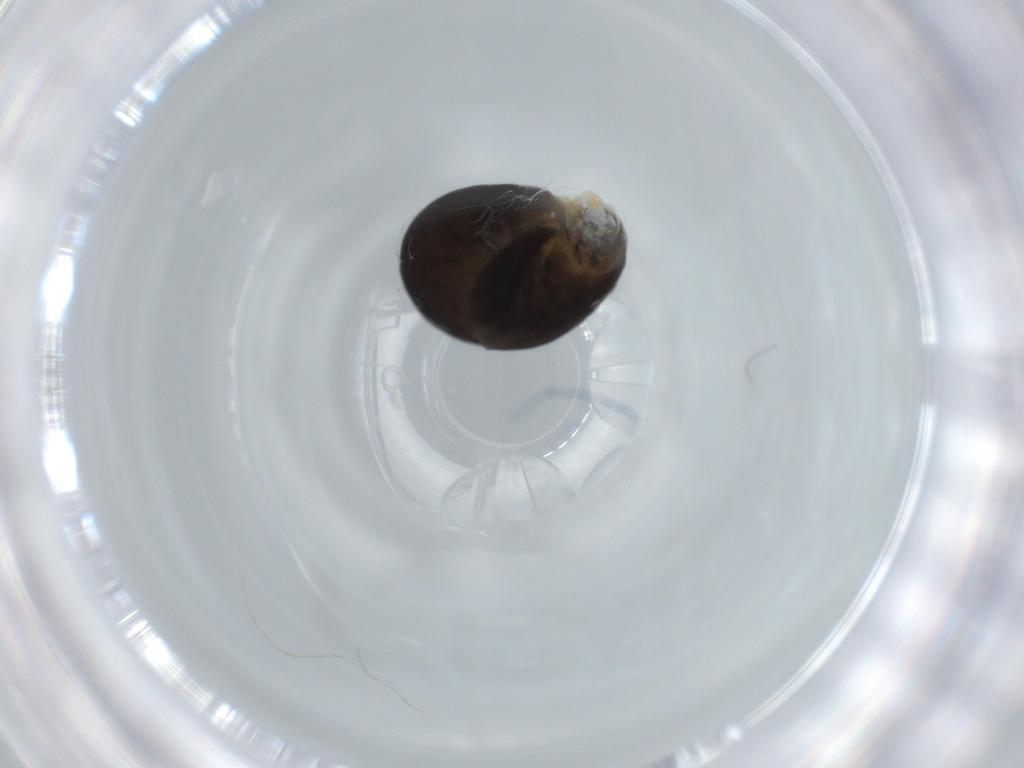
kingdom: Animalia
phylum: Arthropoda
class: Insecta
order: Hymenoptera
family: Dryinidae
